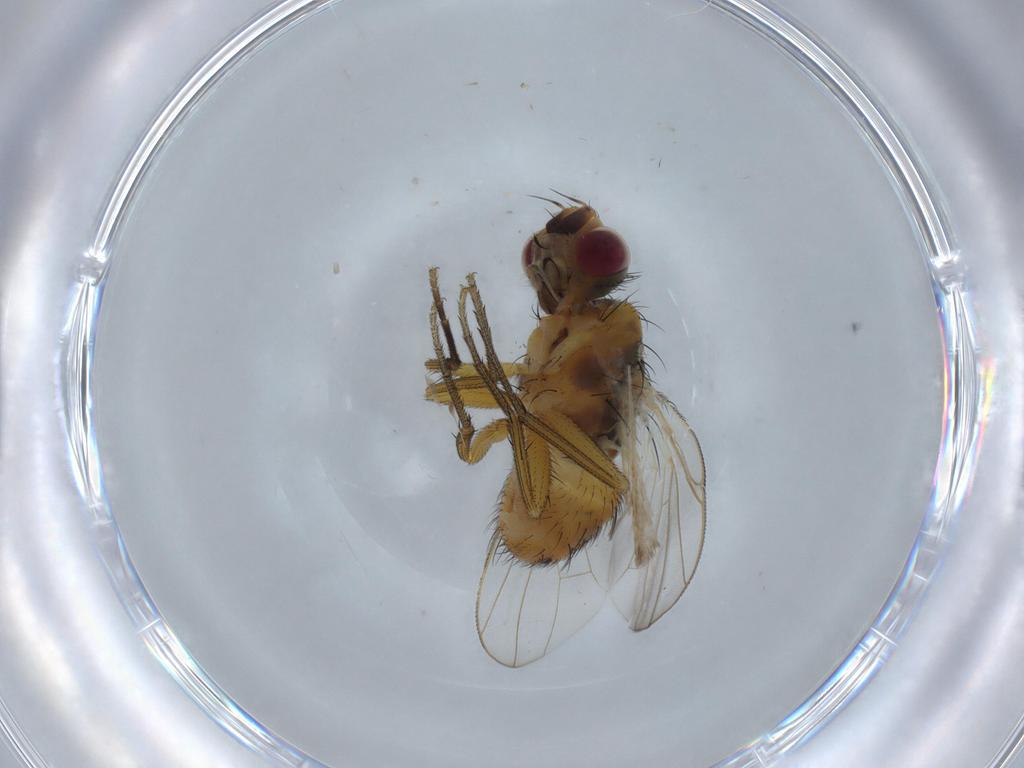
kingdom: Animalia
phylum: Arthropoda
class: Insecta
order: Diptera
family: Muscidae
